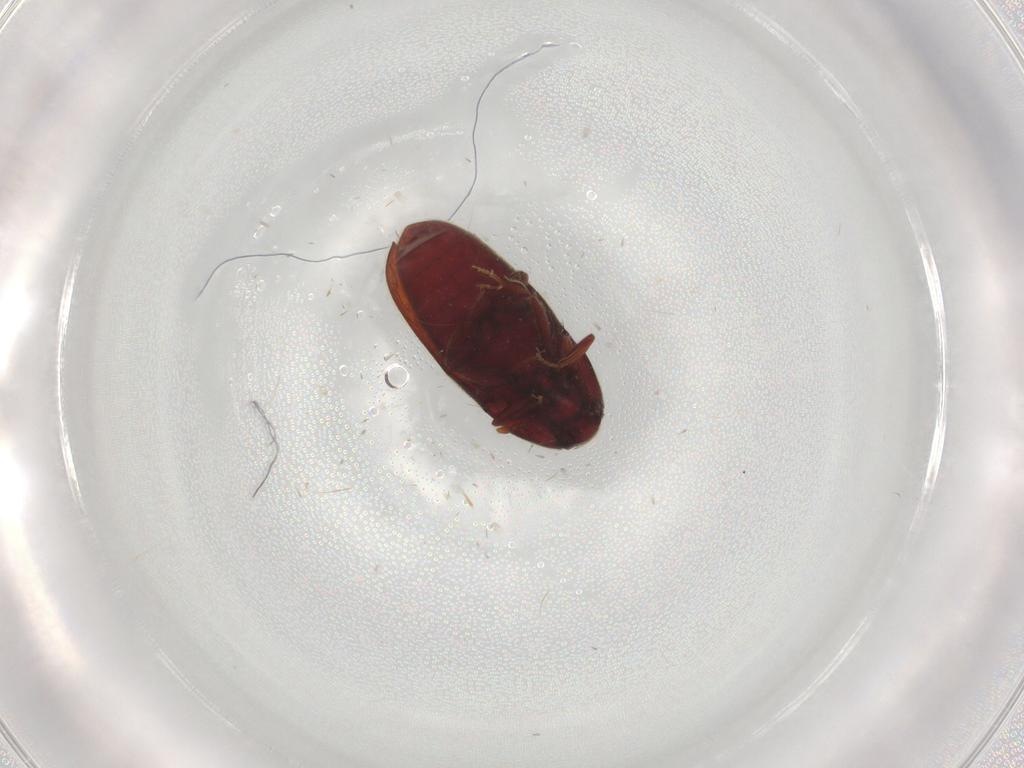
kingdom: Animalia
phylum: Arthropoda
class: Insecta
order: Coleoptera
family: Throscidae
